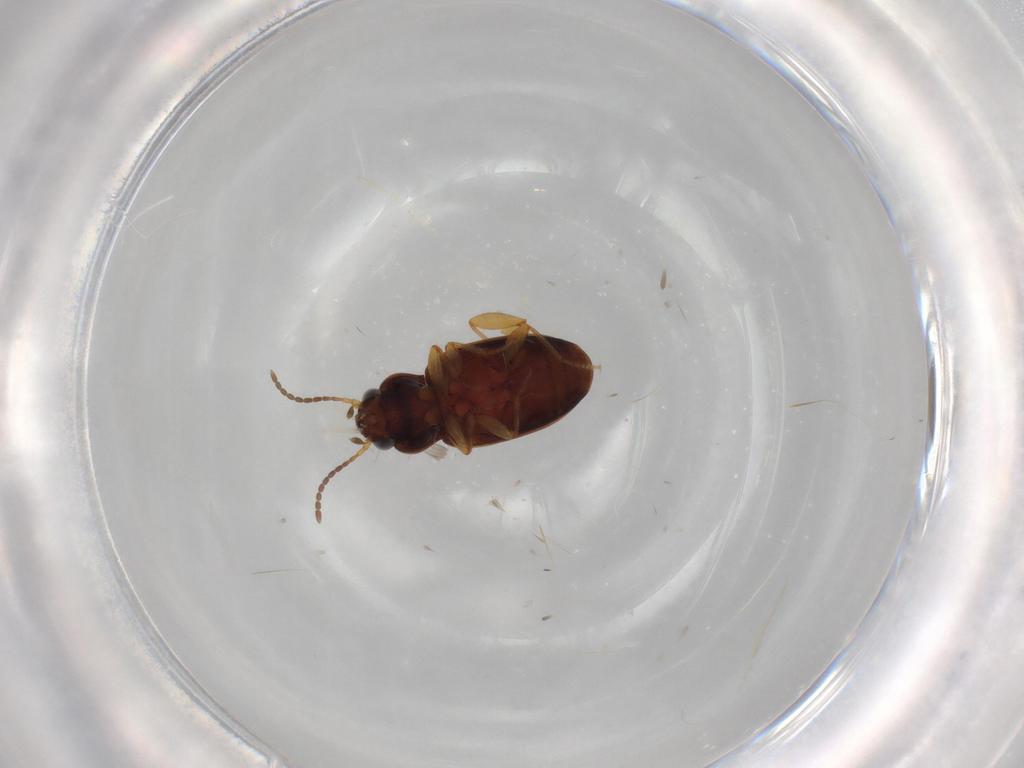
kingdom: Animalia
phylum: Arthropoda
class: Insecta
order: Coleoptera
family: Carabidae
